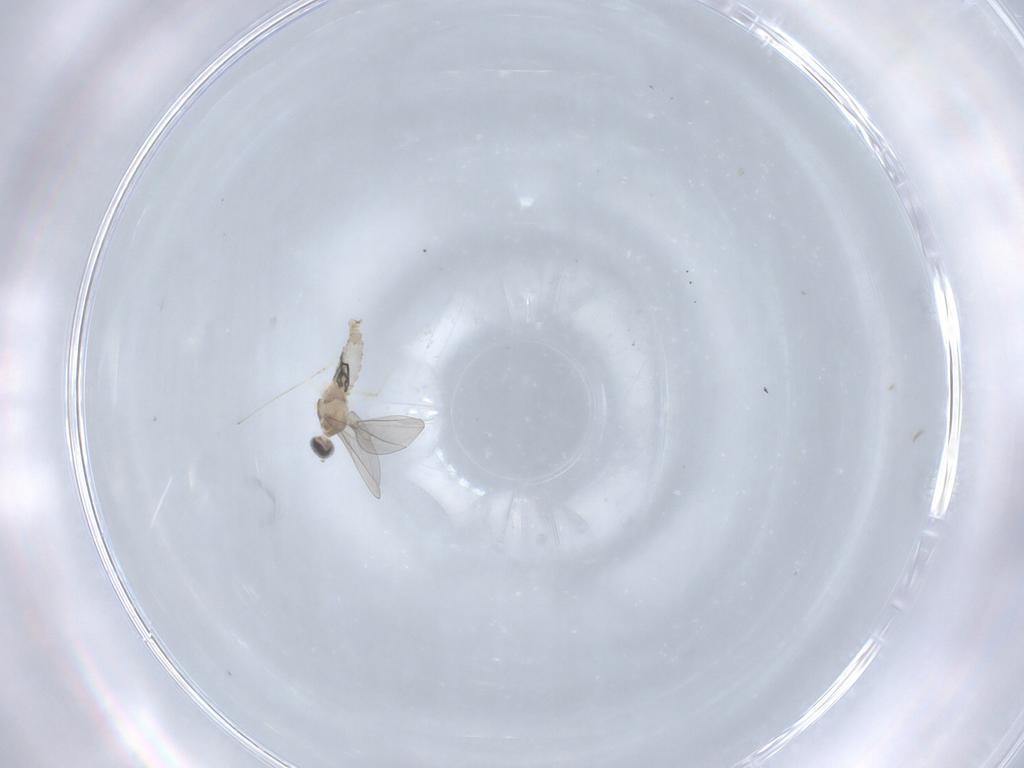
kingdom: Animalia
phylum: Arthropoda
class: Insecta
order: Diptera
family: Cecidomyiidae
